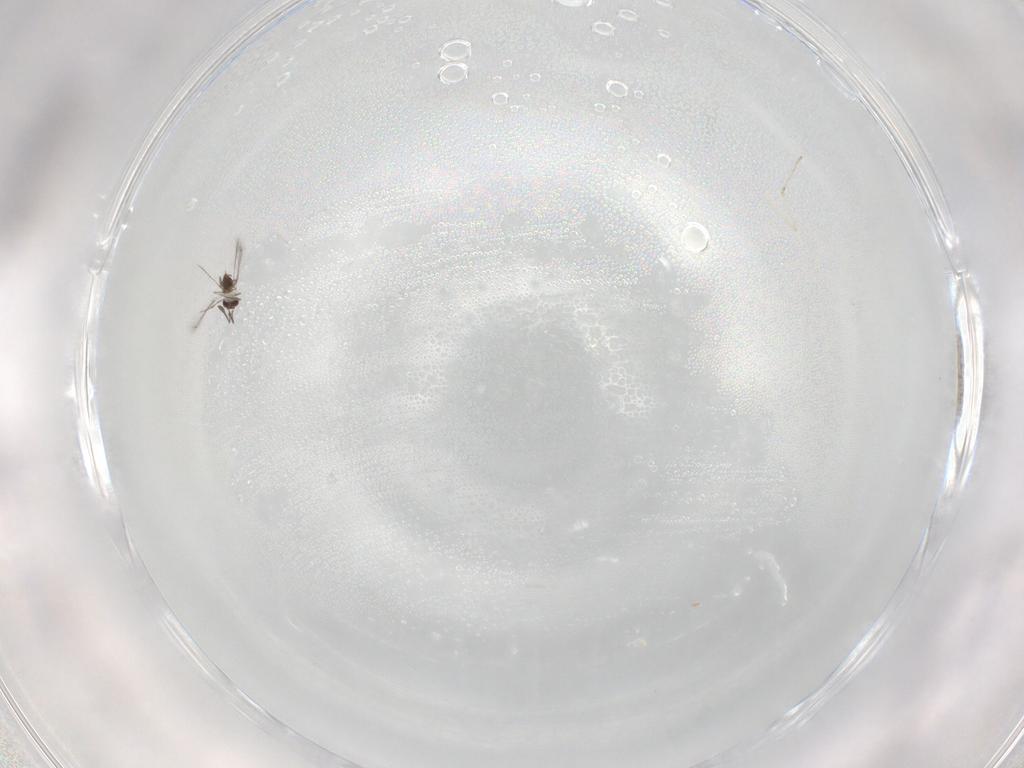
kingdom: Animalia
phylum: Arthropoda
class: Insecta
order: Hymenoptera
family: Mymaridae
